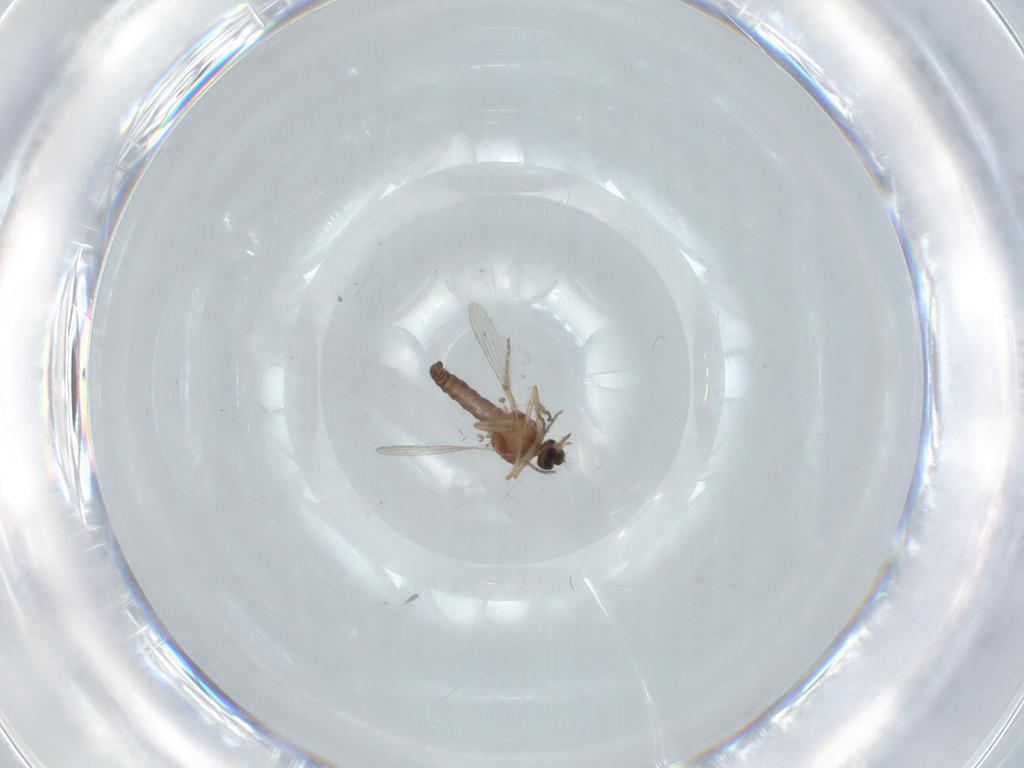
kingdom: Animalia
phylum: Arthropoda
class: Insecta
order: Diptera
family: Ceratopogonidae
